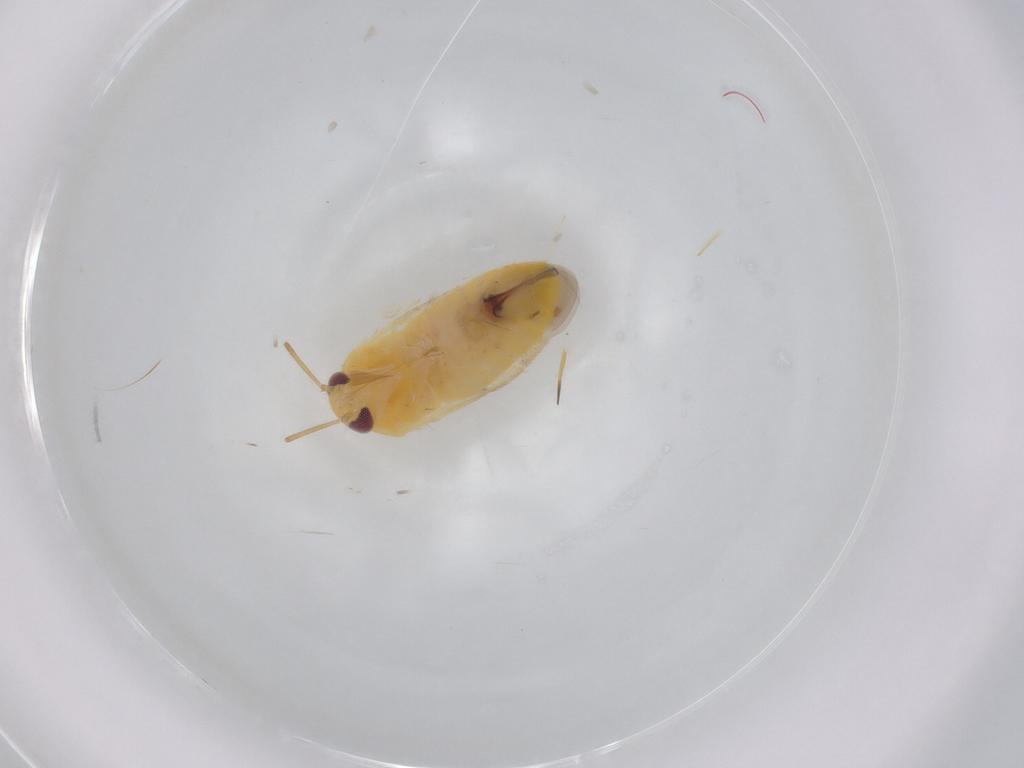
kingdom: Animalia
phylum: Arthropoda
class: Insecta
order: Hemiptera
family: Miridae
